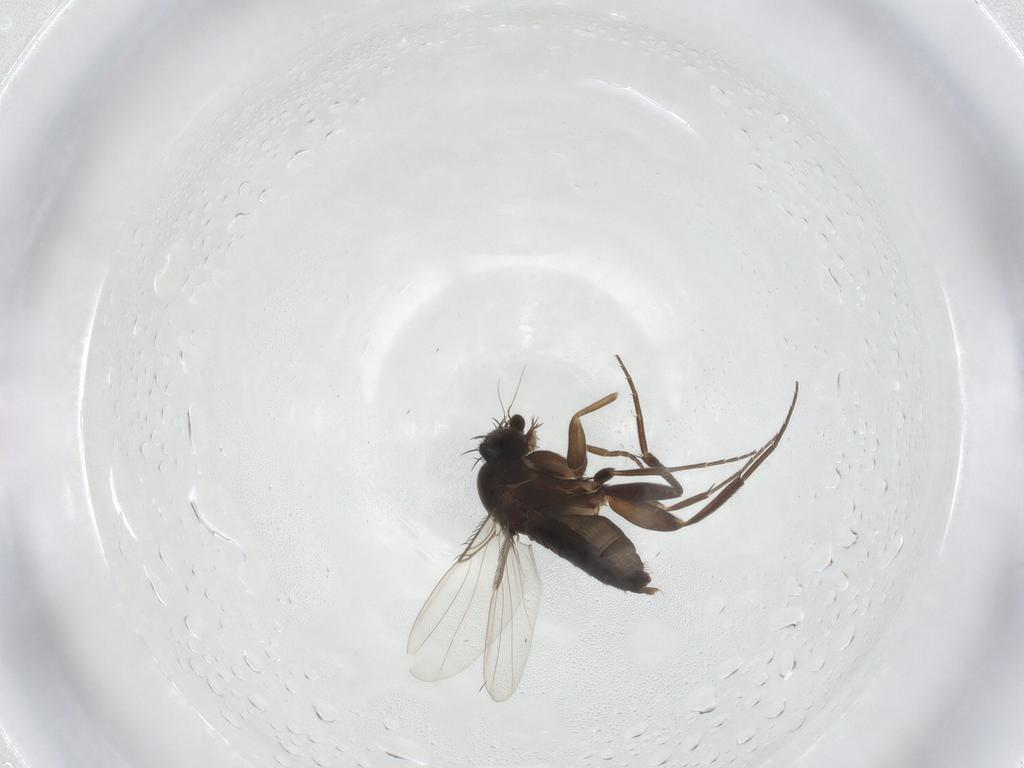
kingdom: Animalia
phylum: Arthropoda
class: Insecta
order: Diptera
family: Phoridae
